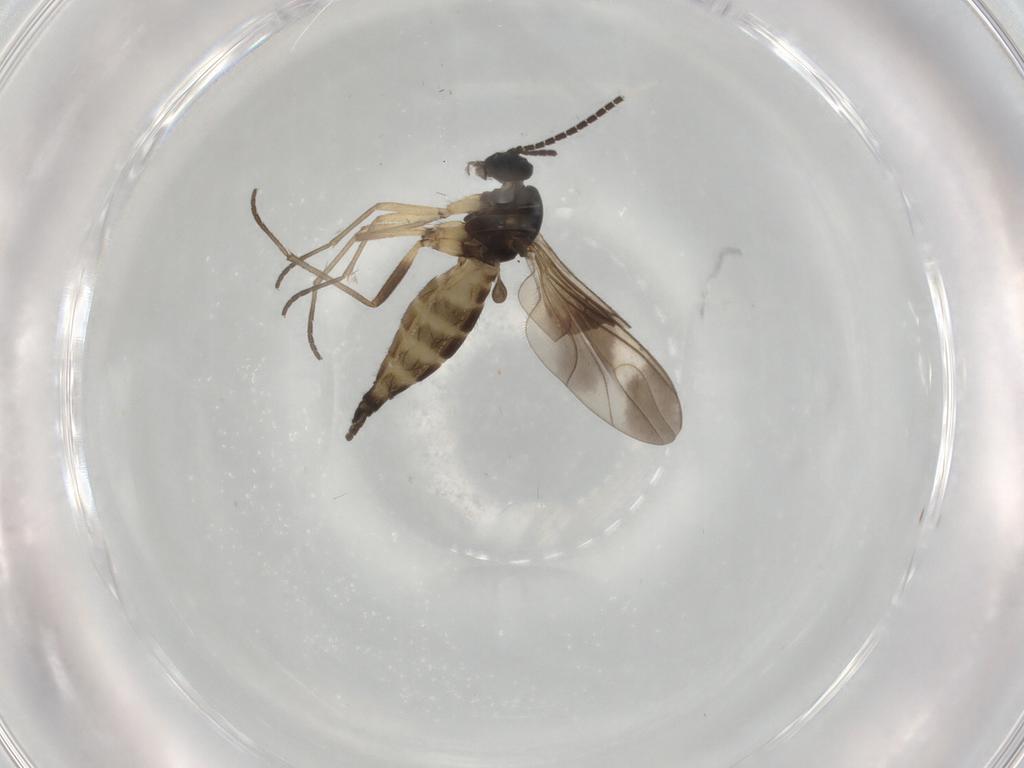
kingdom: Animalia
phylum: Arthropoda
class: Insecta
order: Diptera
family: Sciaridae
